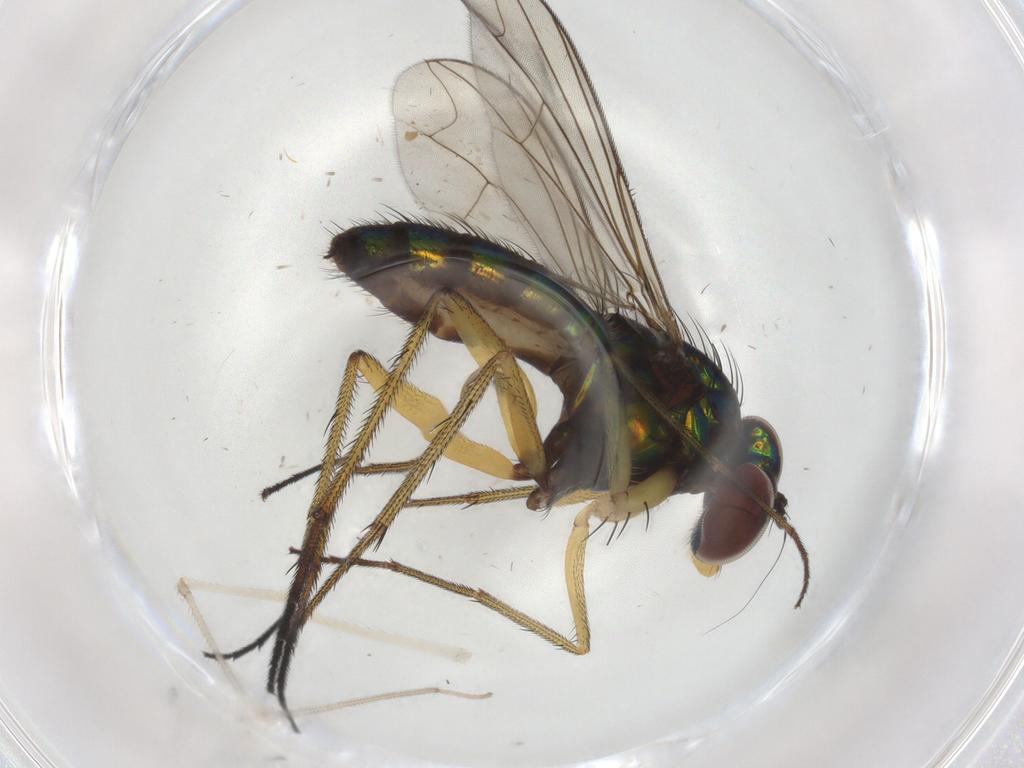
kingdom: Animalia
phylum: Arthropoda
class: Insecta
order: Diptera
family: Dolichopodidae
